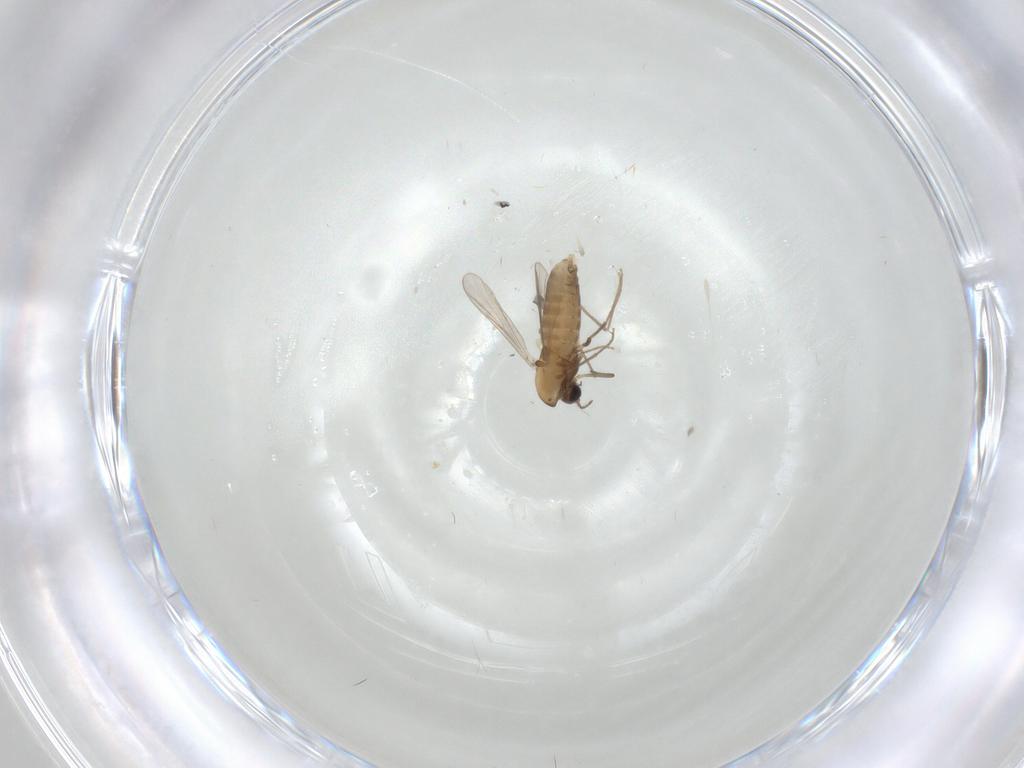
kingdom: Animalia
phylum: Arthropoda
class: Insecta
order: Diptera
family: Chironomidae
